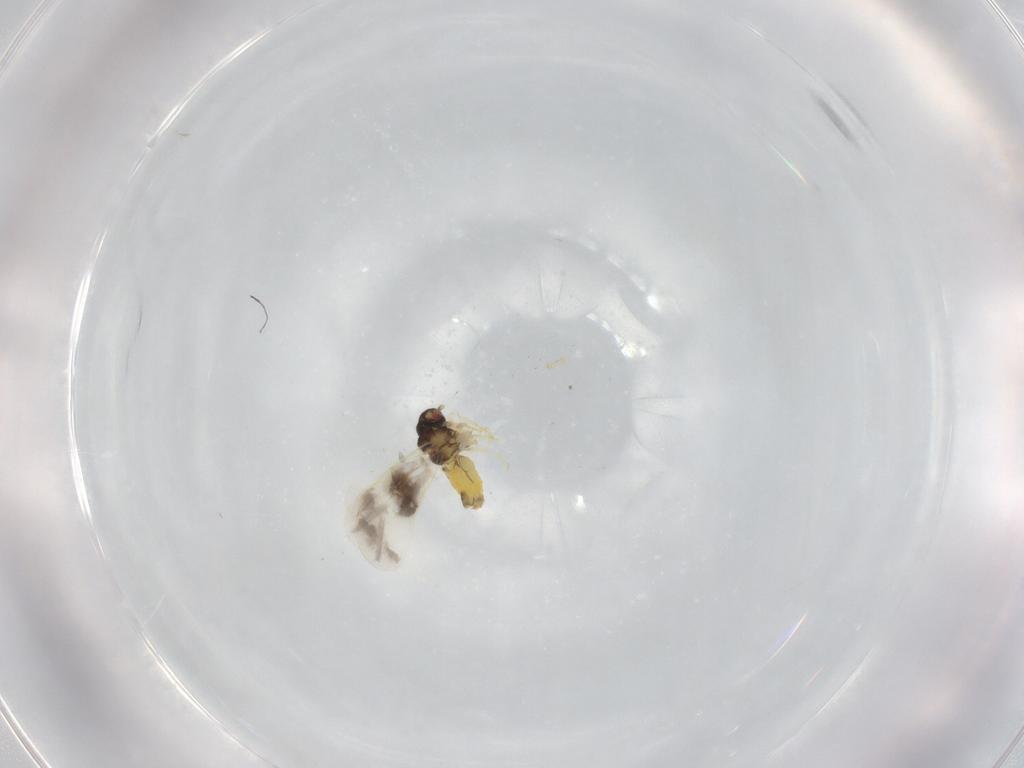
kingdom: Animalia
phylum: Arthropoda
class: Insecta
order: Hemiptera
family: Aleyrodidae
